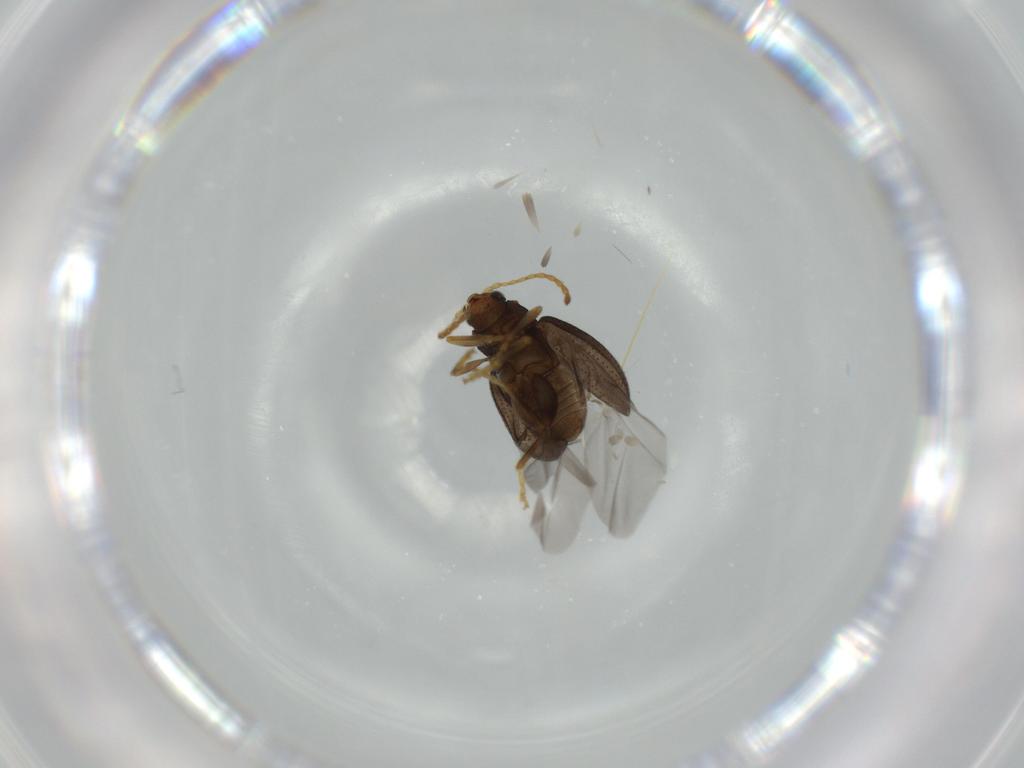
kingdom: Animalia
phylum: Arthropoda
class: Insecta
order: Coleoptera
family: Chrysomelidae
